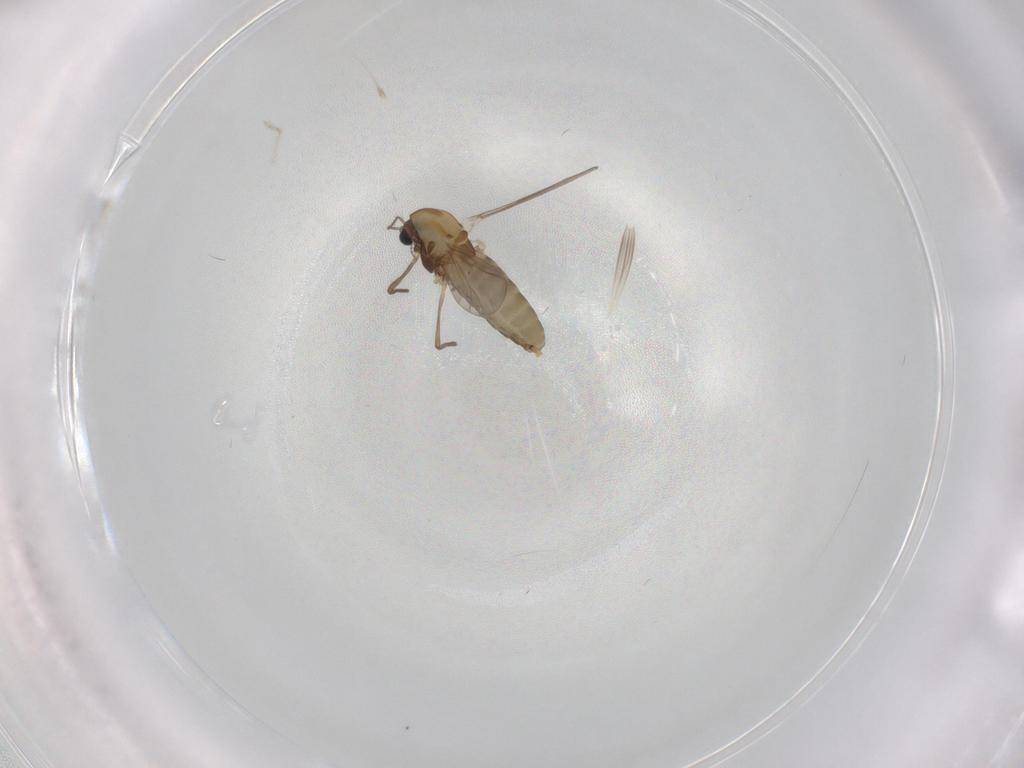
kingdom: Animalia
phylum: Arthropoda
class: Insecta
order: Diptera
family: Chironomidae
